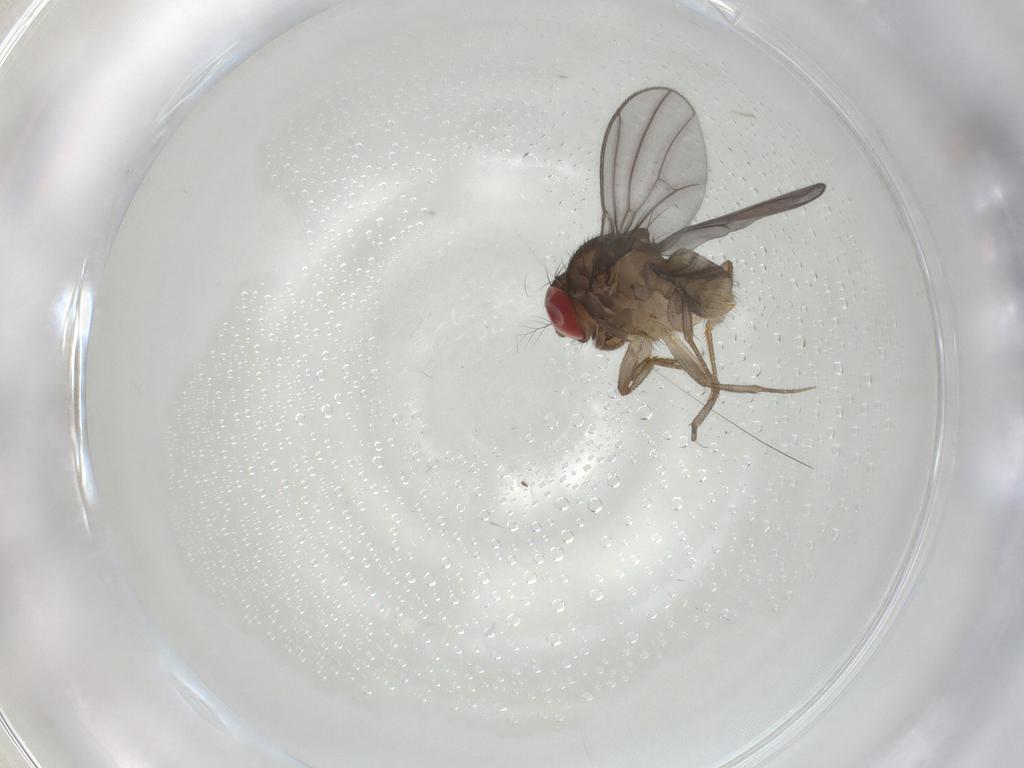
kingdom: Animalia
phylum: Arthropoda
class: Insecta
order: Diptera
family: Drosophilidae
